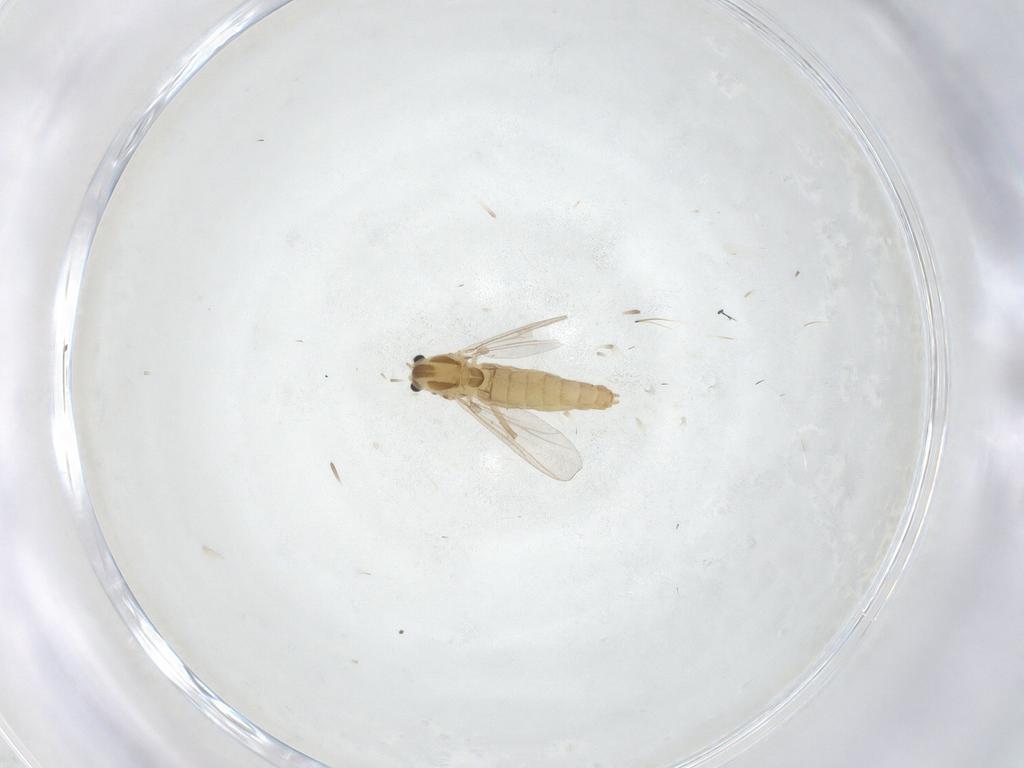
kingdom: Animalia
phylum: Arthropoda
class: Insecta
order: Diptera
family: Chironomidae
